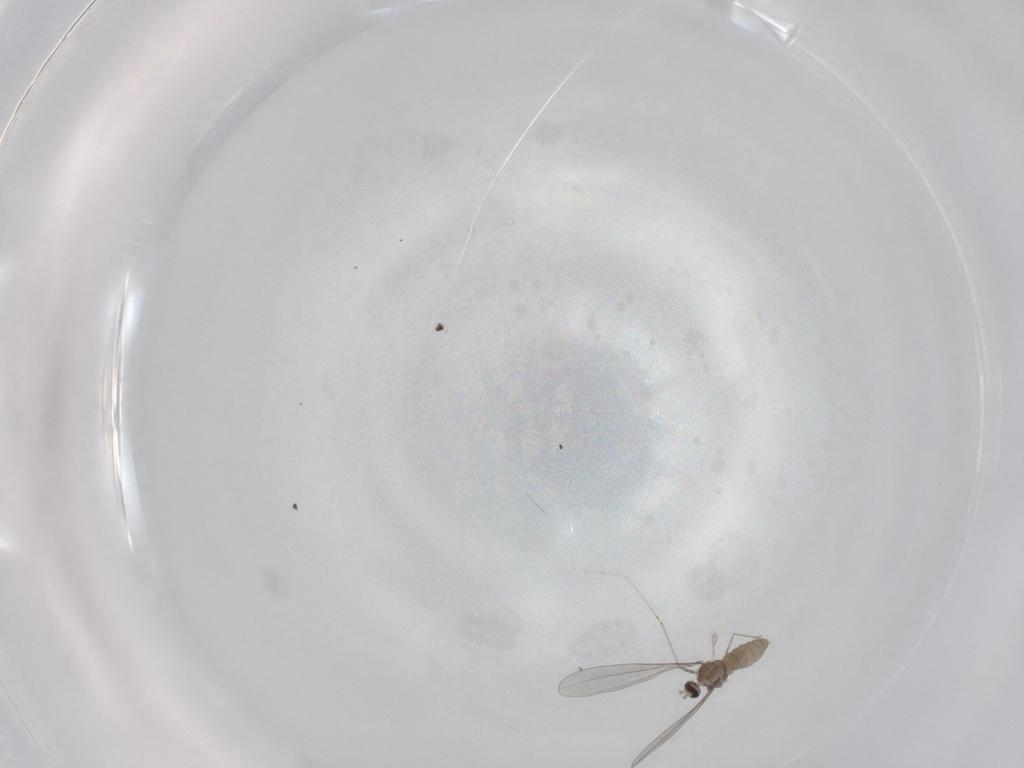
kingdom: Animalia
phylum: Arthropoda
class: Insecta
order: Diptera
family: Cecidomyiidae
